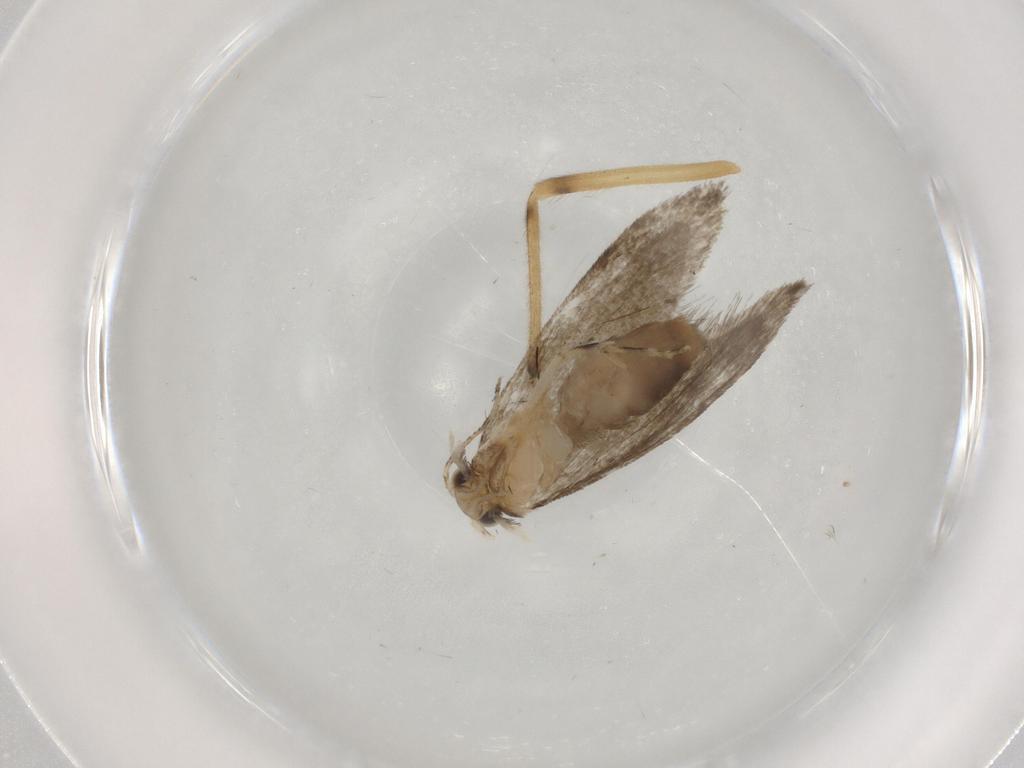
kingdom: Animalia
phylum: Arthropoda
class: Insecta
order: Lepidoptera
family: Tineidae
